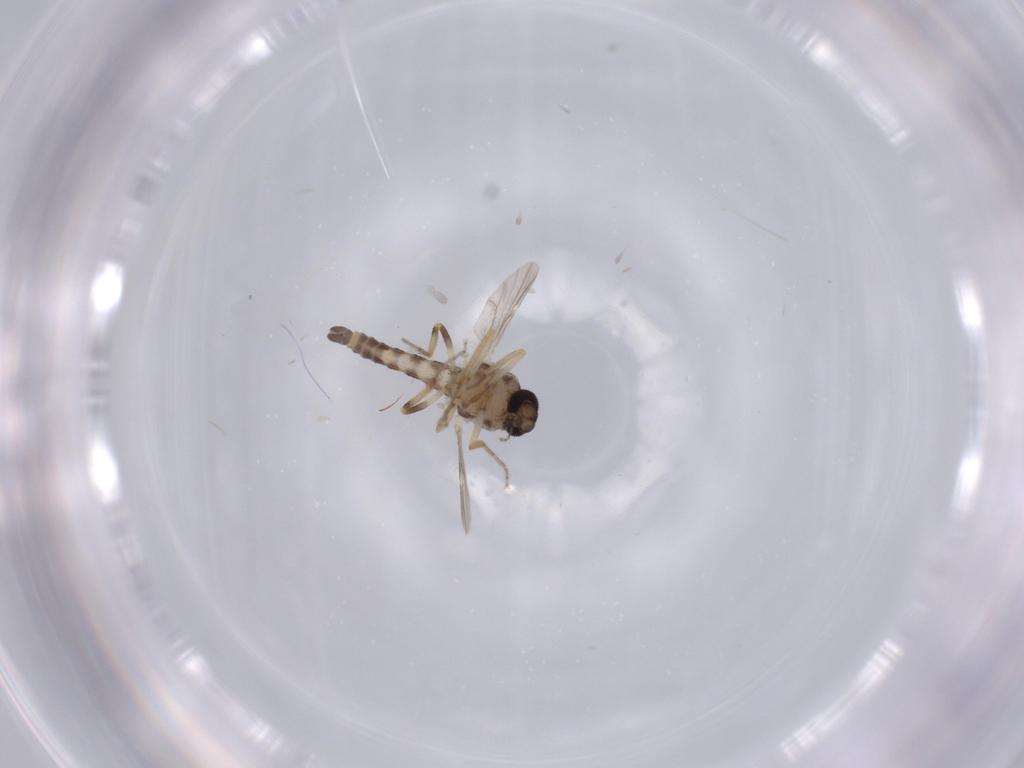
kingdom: Animalia
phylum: Arthropoda
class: Insecta
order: Diptera
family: Ceratopogonidae
